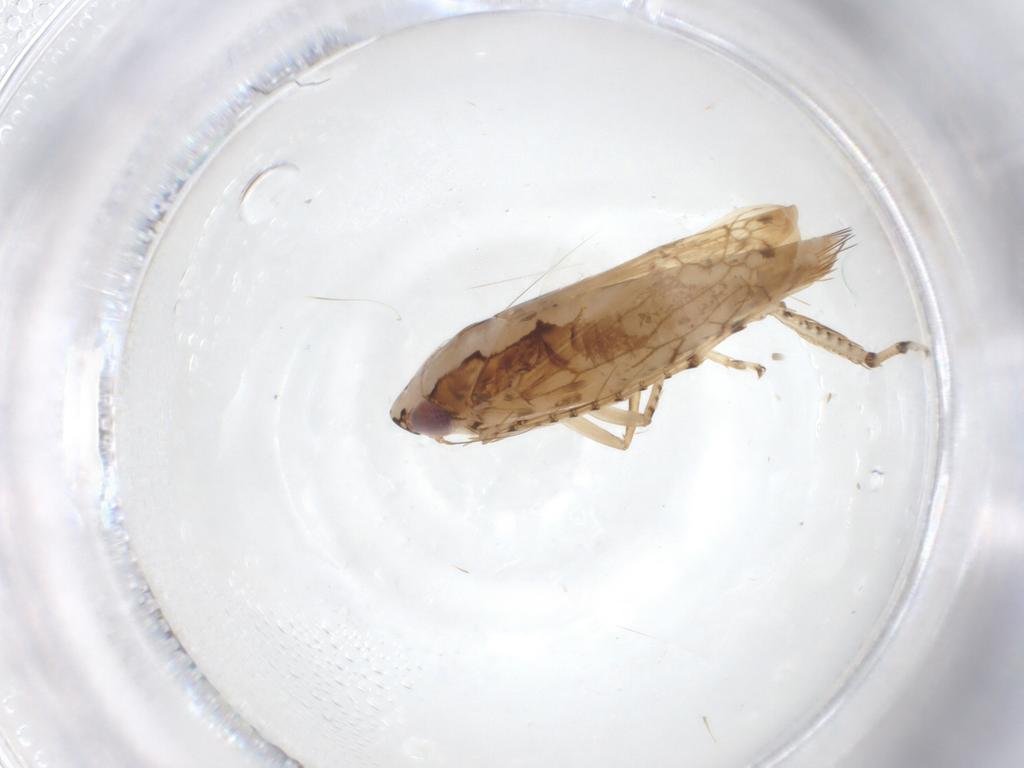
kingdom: Animalia
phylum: Arthropoda
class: Insecta
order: Hemiptera
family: Cicadellidae
